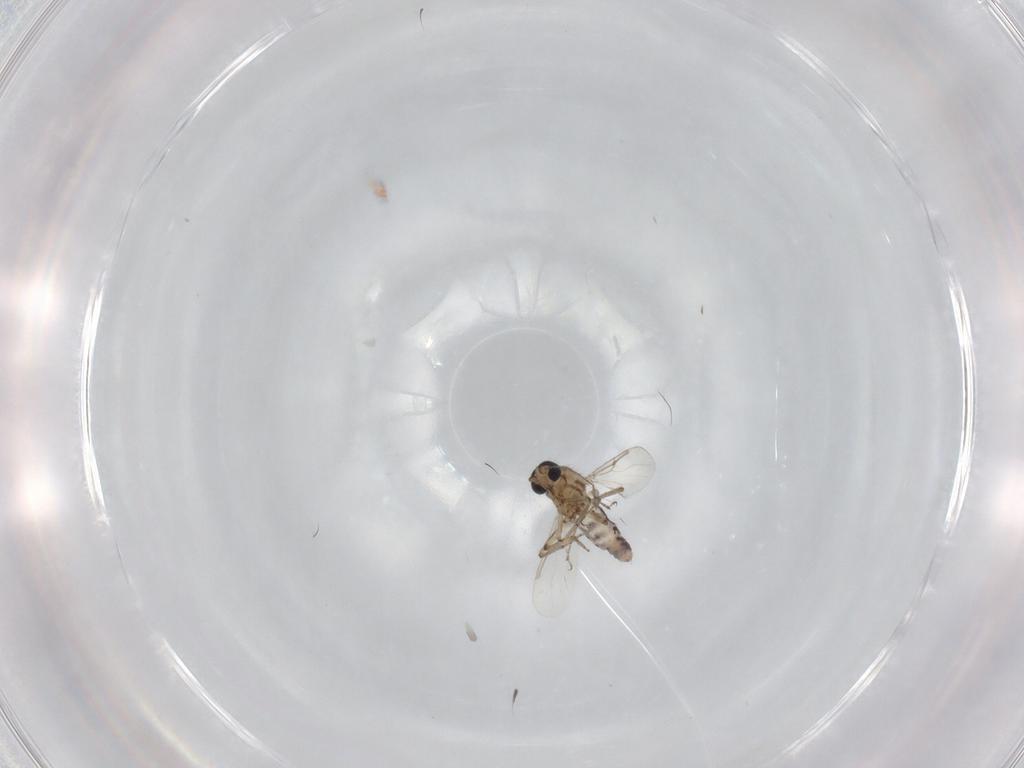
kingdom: Animalia
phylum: Arthropoda
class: Insecta
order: Diptera
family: Ceratopogonidae
